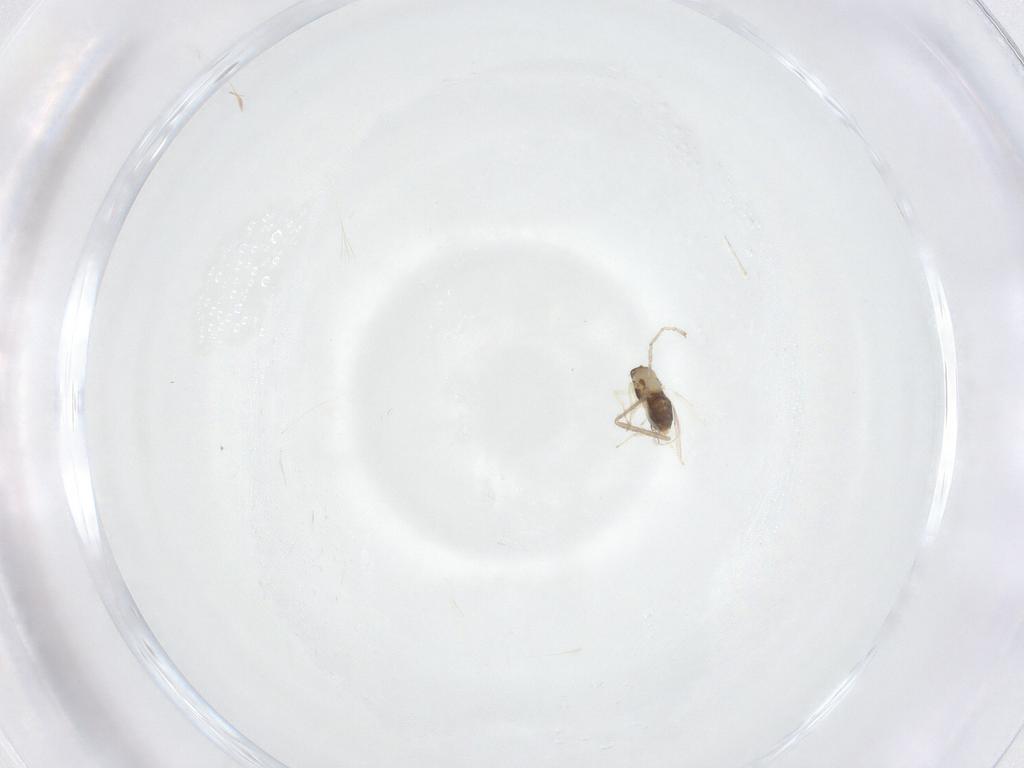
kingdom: Animalia
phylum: Arthropoda
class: Insecta
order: Hymenoptera
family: Aphelinidae
